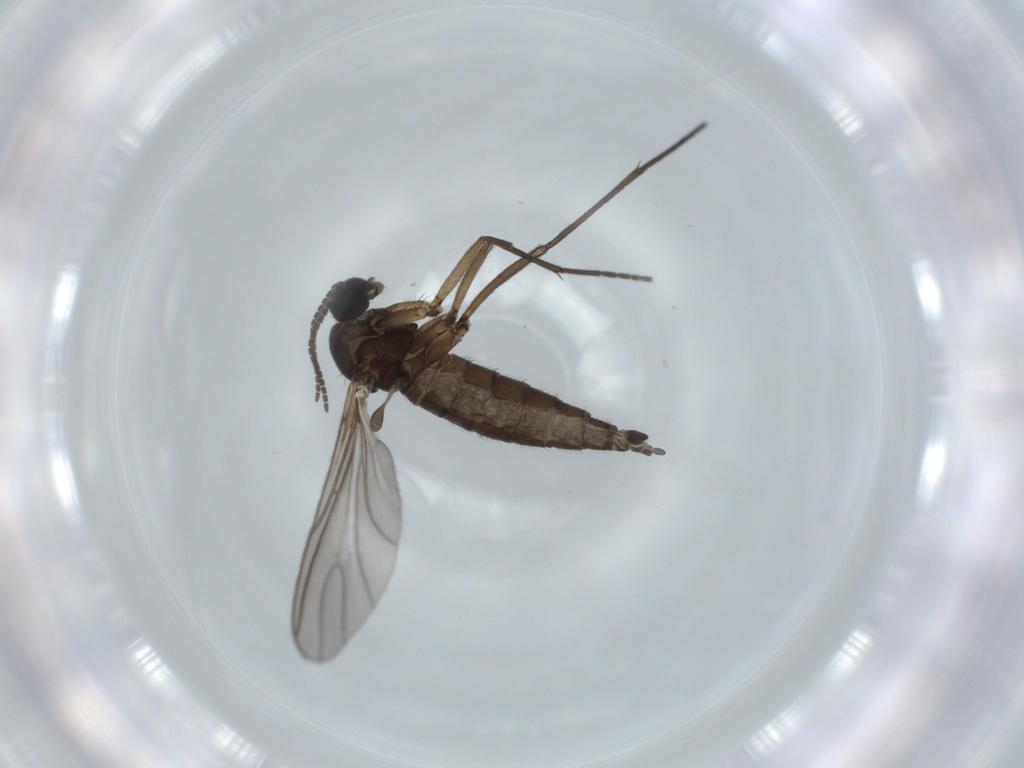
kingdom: Animalia
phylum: Arthropoda
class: Insecta
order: Diptera
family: Sciaridae
